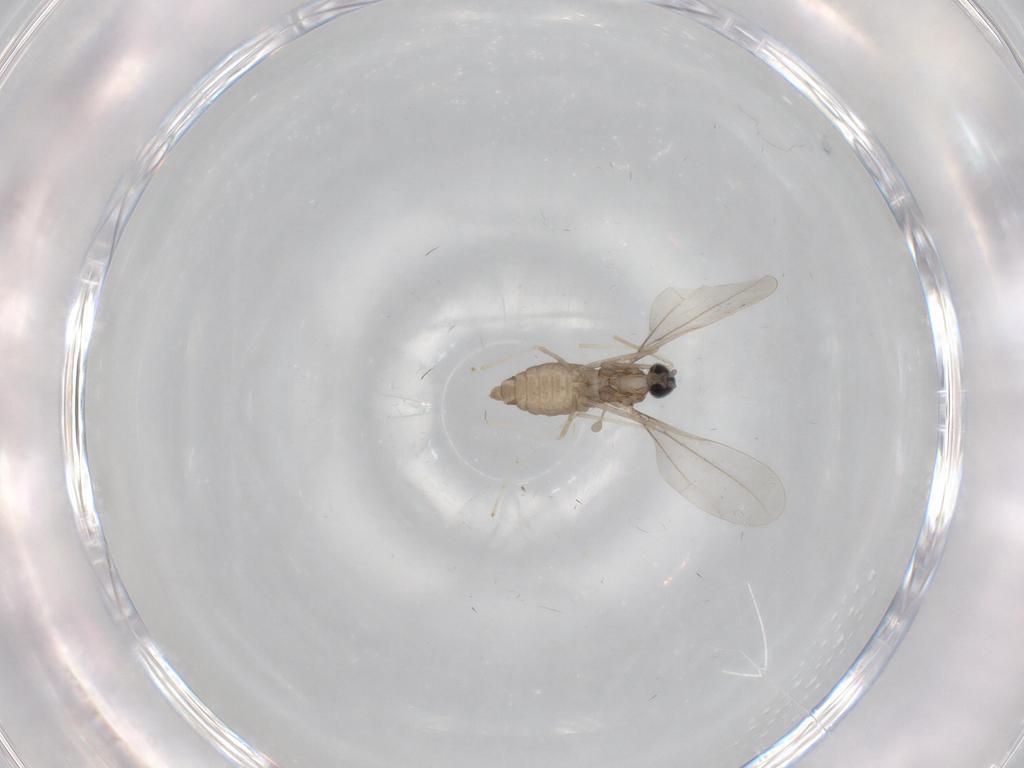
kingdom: Animalia
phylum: Arthropoda
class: Insecta
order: Diptera
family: Cecidomyiidae
